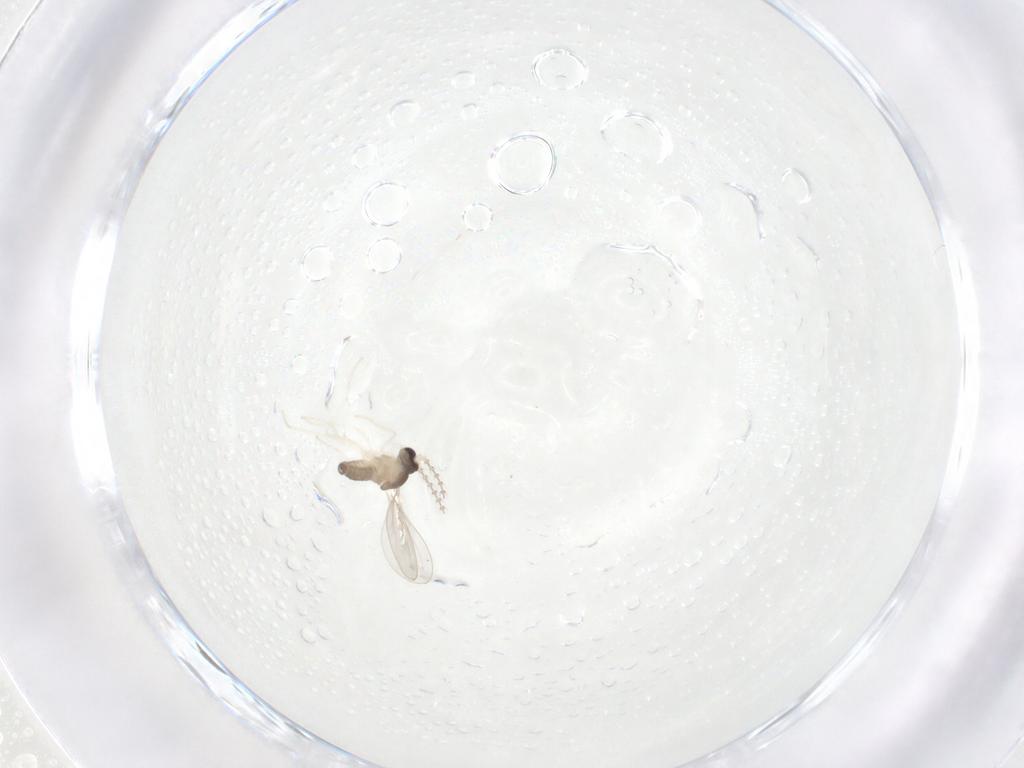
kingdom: Animalia
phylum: Arthropoda
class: Insecta
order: Diptera
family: Cecidomyiidae
